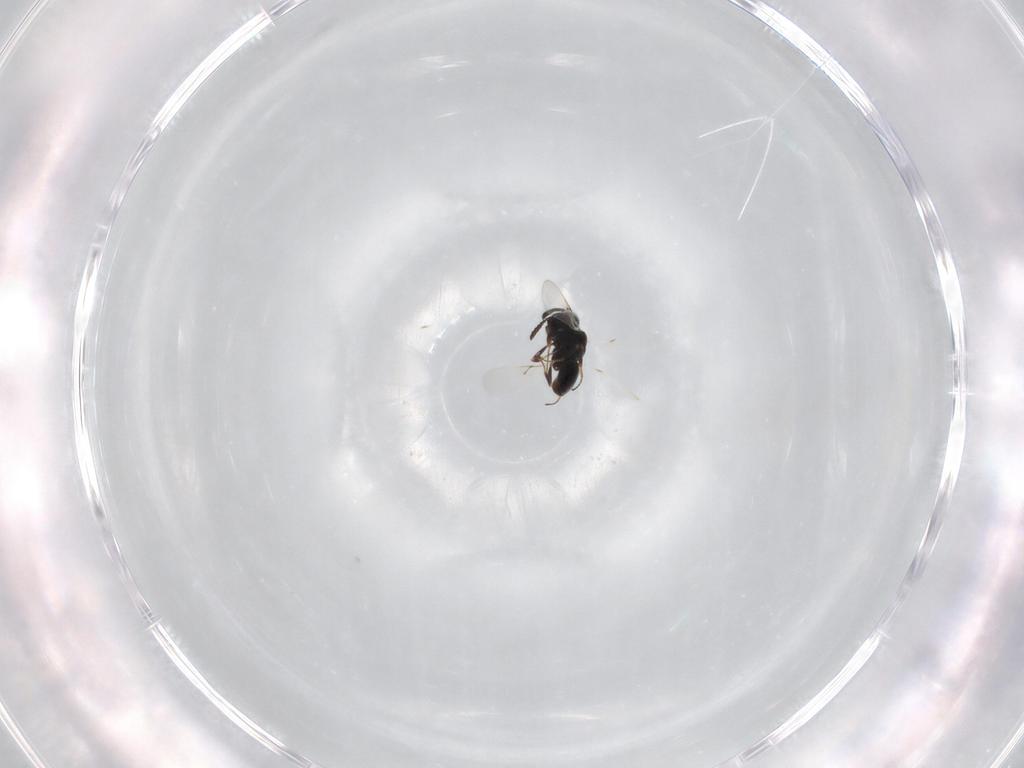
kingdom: Animalia
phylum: Arthropoda
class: Insecta
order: Hymenoptera
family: Scelionidae
